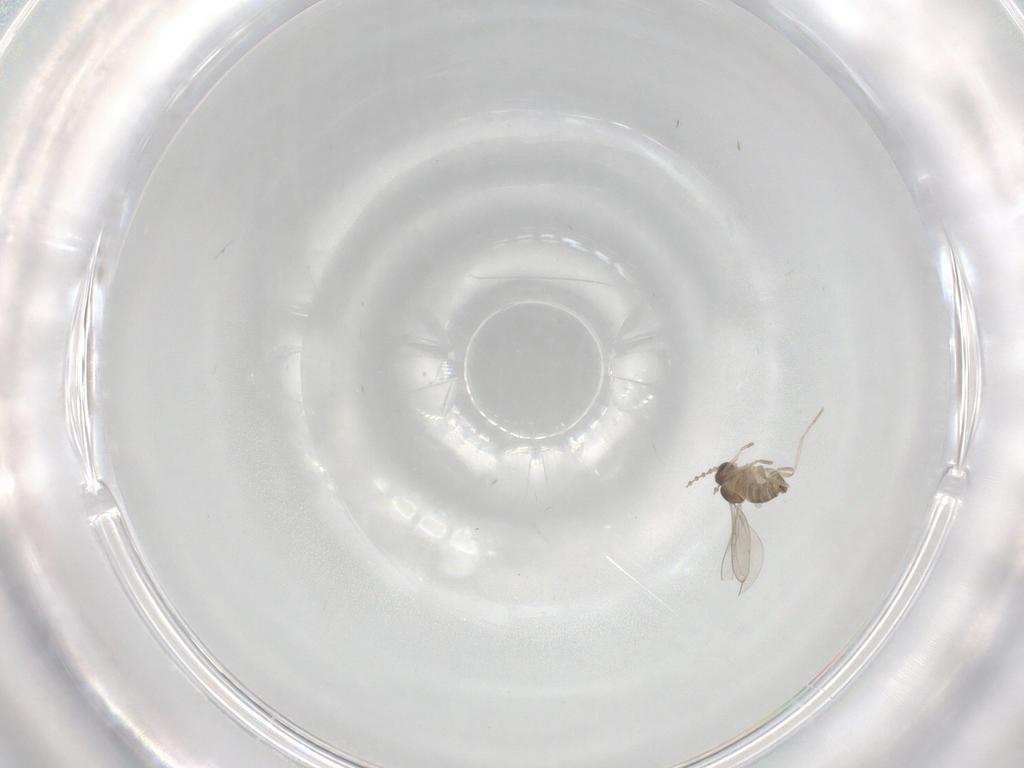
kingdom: Animalia
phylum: Arthropoda
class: Insecta
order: Diptera
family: Cecidomyiidae
